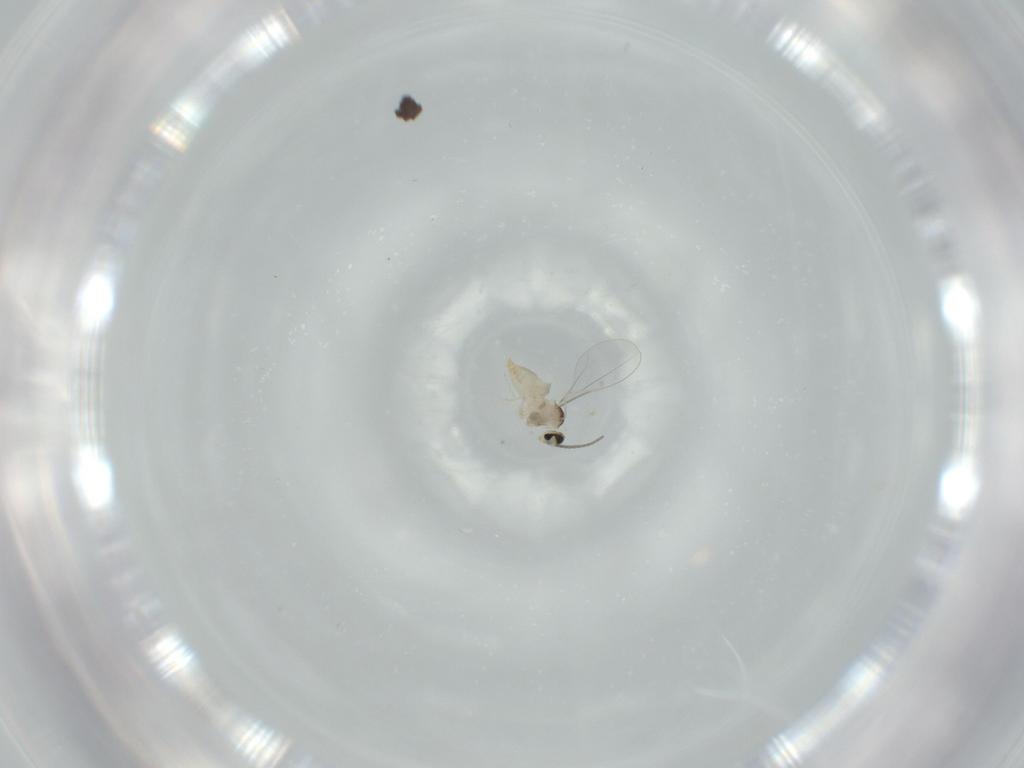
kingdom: Animalia
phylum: Arthropoda
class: Insecta
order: Diptera
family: Cecidomyiidae
